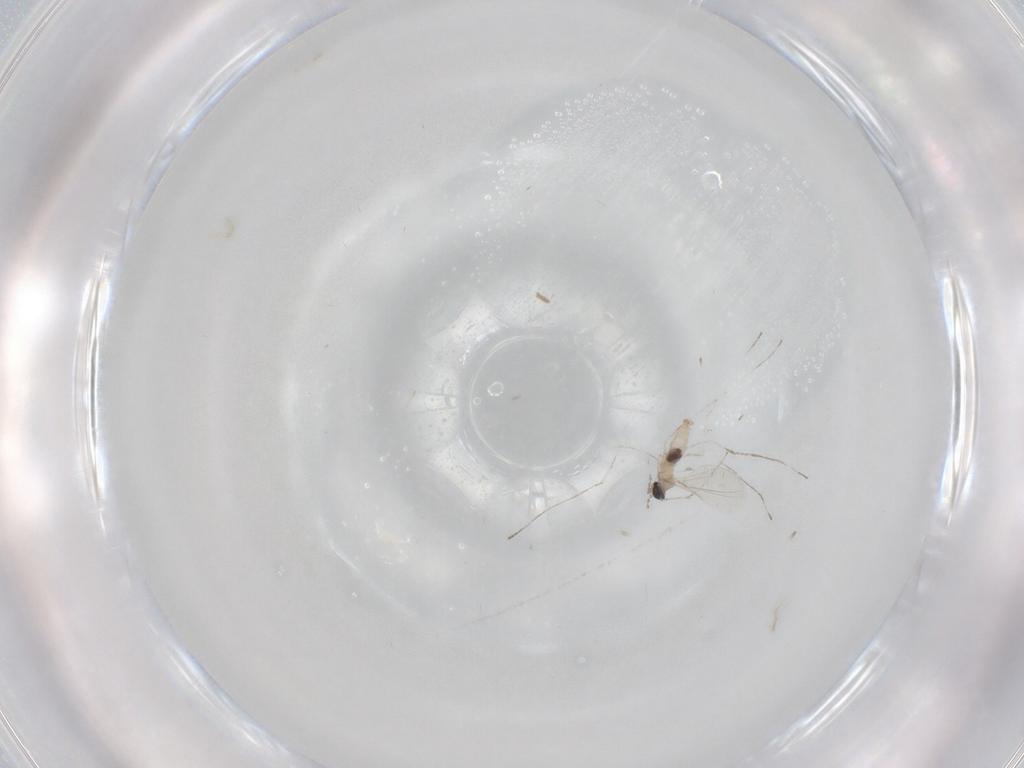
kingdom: Animalia
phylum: Arthropoda
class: Insecta
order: Diptera
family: Cecidomyiidae
